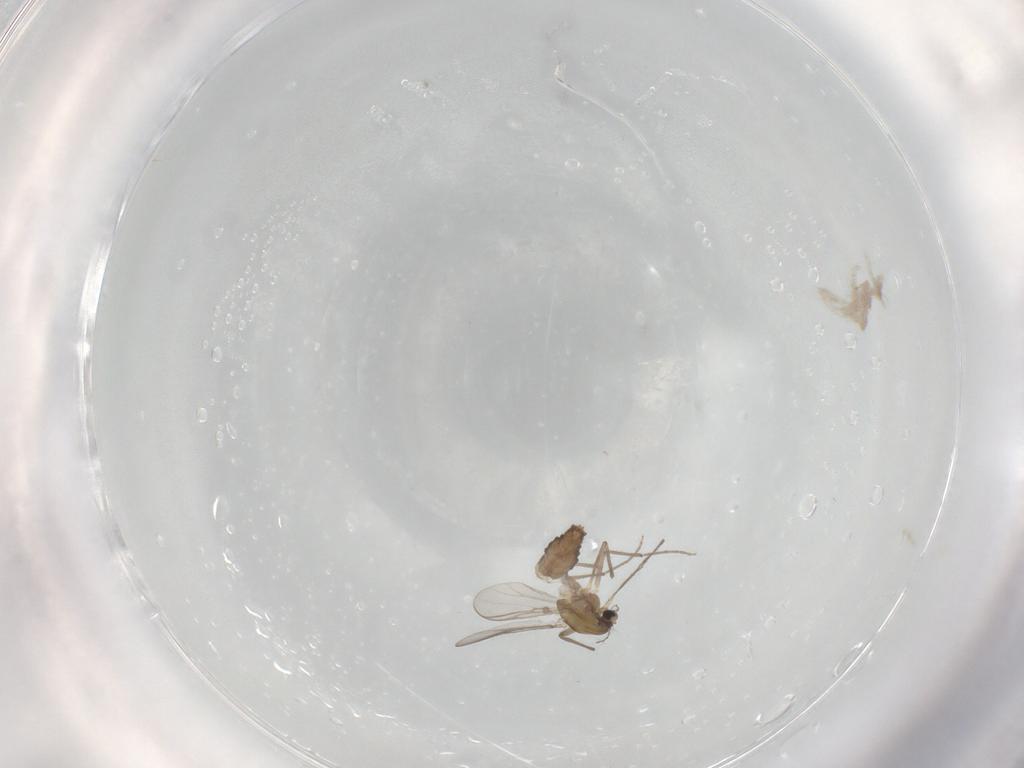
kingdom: Animalia
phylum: Arthropoda
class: Insecta
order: Diptera
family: Chironomidae
